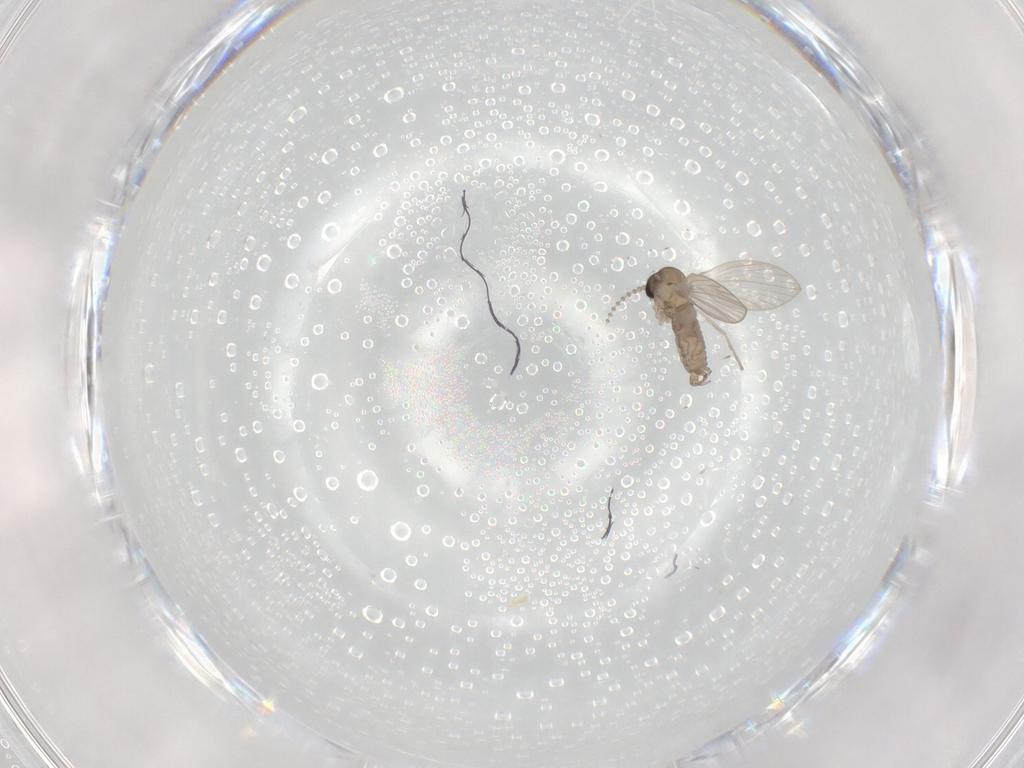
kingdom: Animalia
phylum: Arthropoda
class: Insecta
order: Diptera
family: Psychodidae
